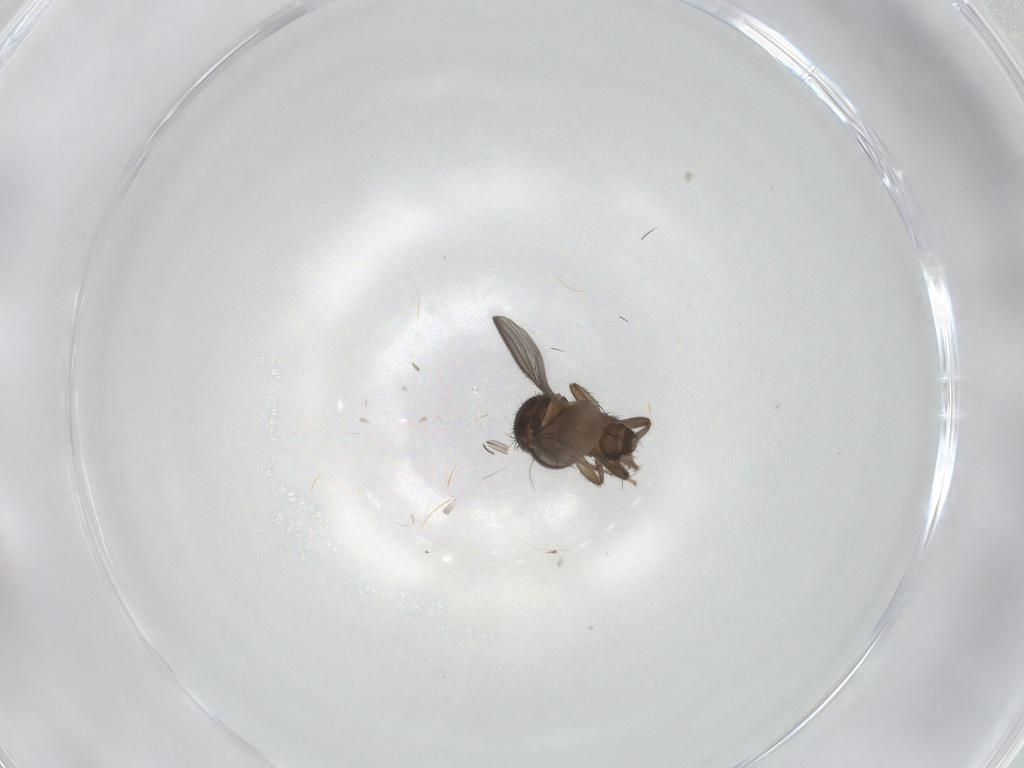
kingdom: Animalia
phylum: Arthropoda
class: Insecta
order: Diptera
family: Sphaeroceridae
